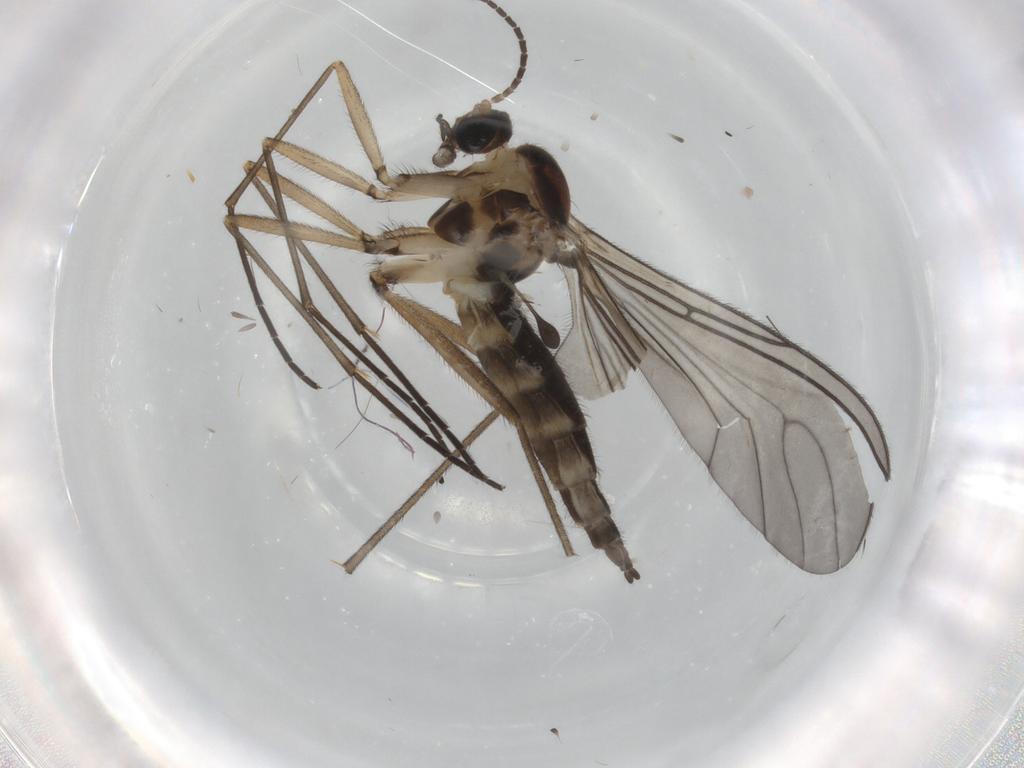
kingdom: Animalia
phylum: Arthropoda
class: Insecta
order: Diptera
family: Sciaridae
